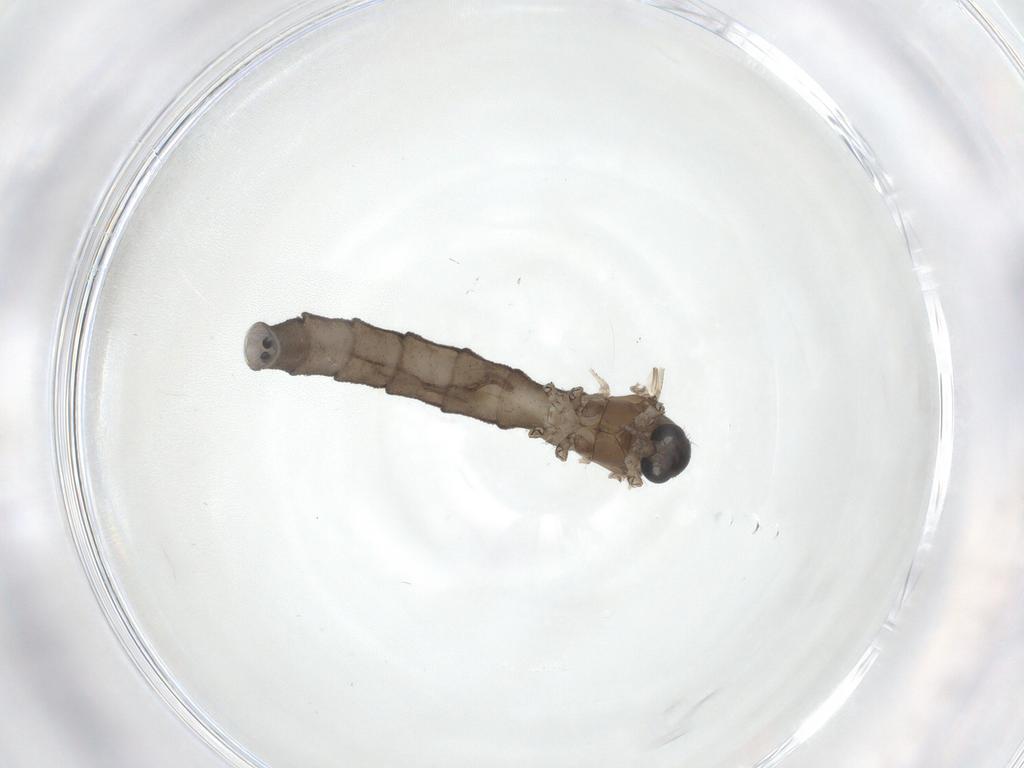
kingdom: Animalia
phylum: Arthropoda
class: Insecta
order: Diptera
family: Limoniidae
